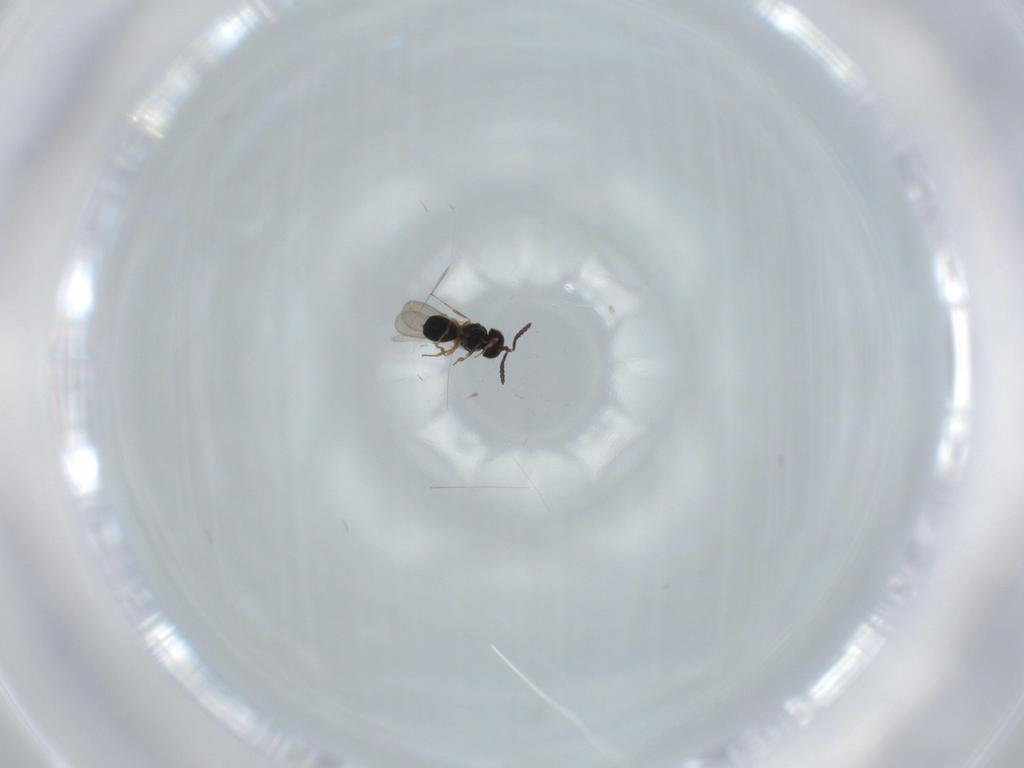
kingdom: Animalia
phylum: Arthropoda
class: Insecta
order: Hymenoptera
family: Scelionidae
